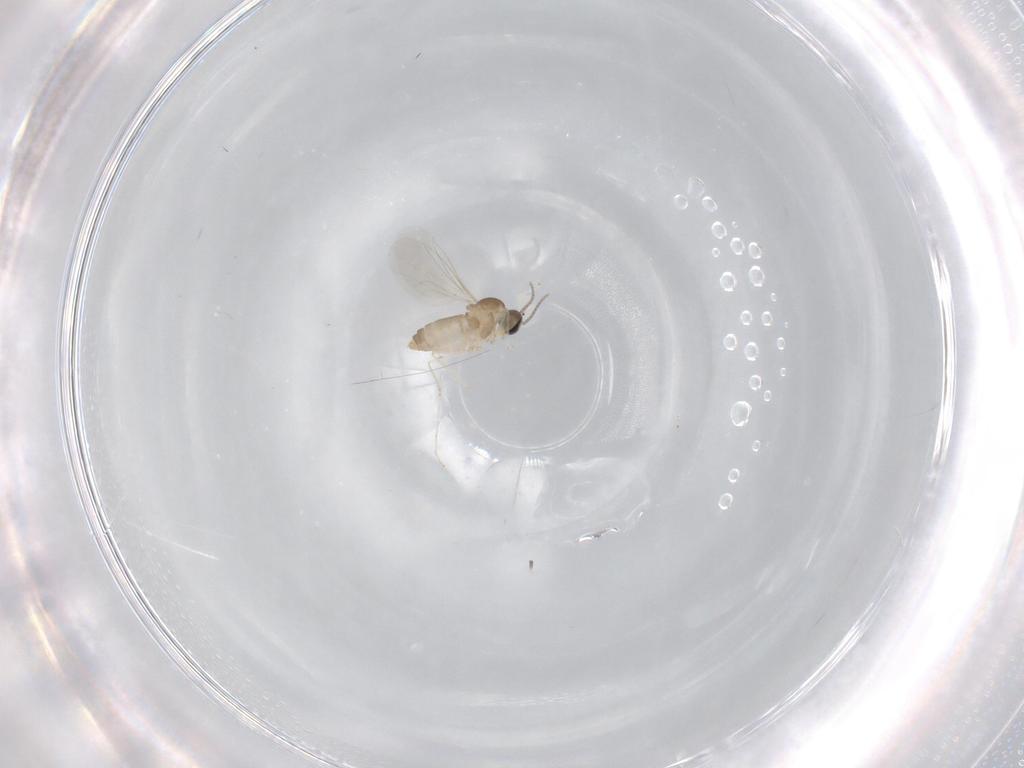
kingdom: Animalia
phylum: Arthropoda
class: Insecta
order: Diptera
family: Cecidomyiidae
